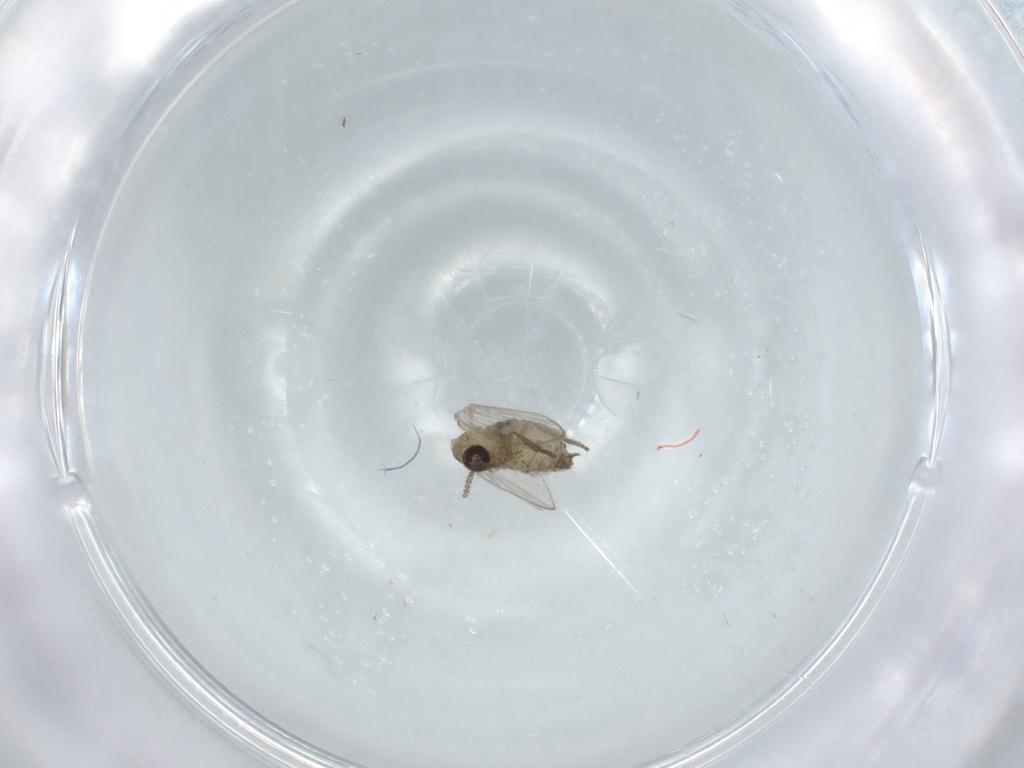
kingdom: Animalia
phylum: Arthropoda
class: Insecta
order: Diptera
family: Psychodidae
